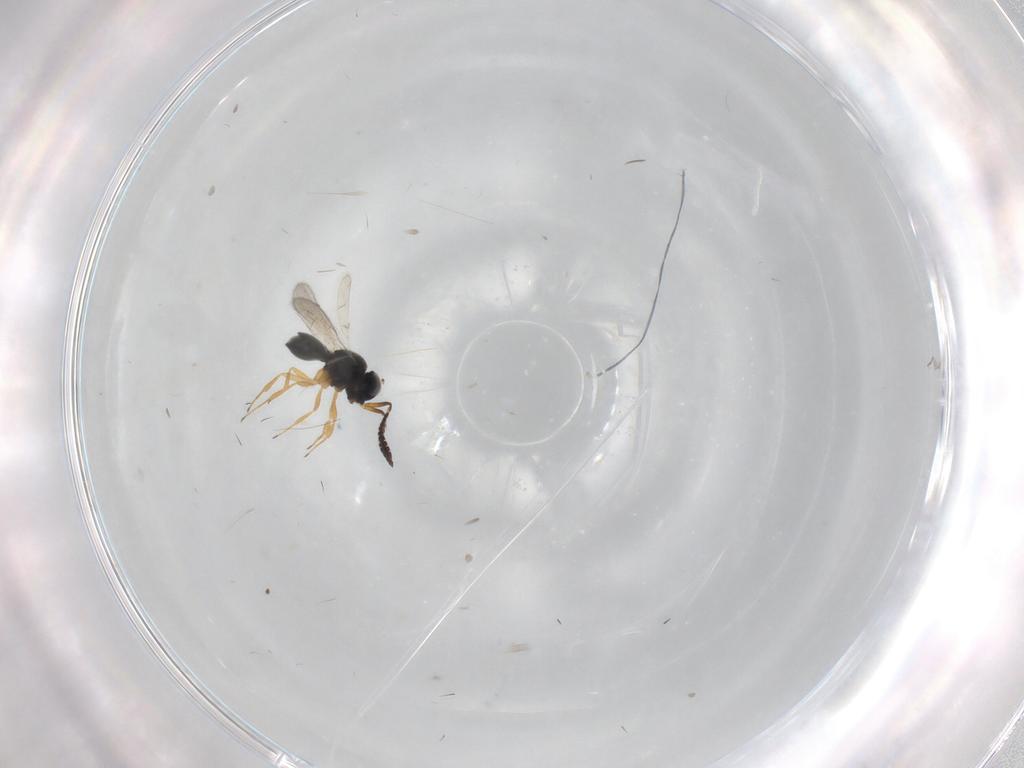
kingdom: Animalia
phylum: Arthropoda
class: Insecta
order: Hymenoptera
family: Scelionidae
